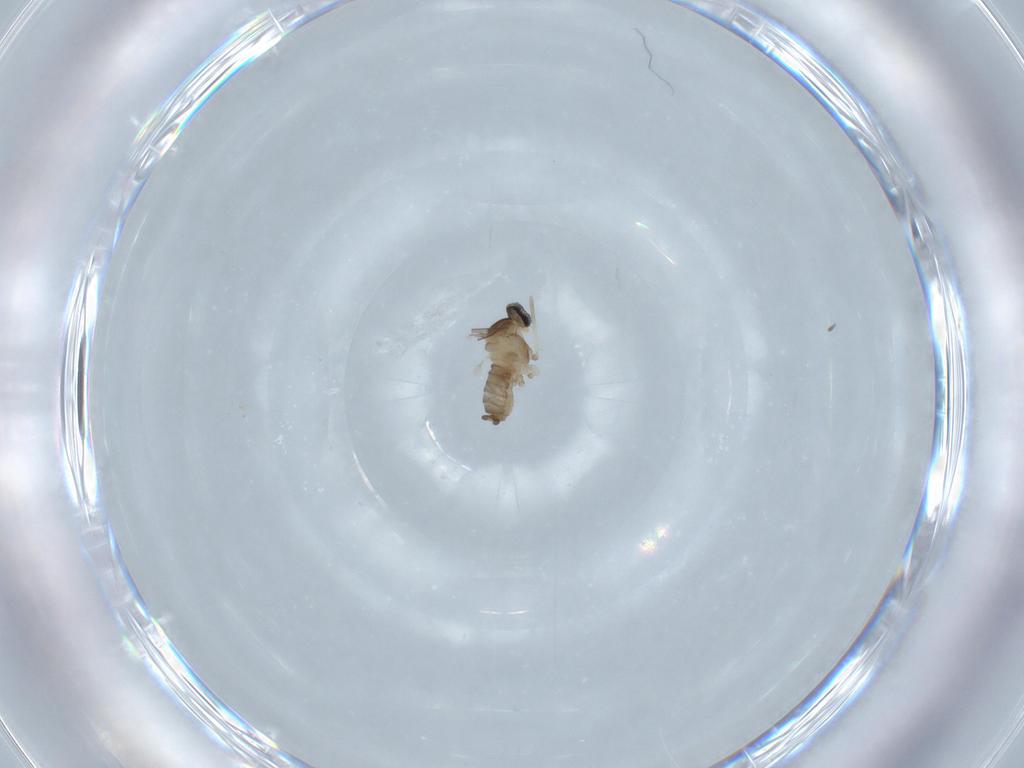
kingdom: Animalia
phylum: Arthropoda
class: Insecta
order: Diptera
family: Cecidomyiidae
